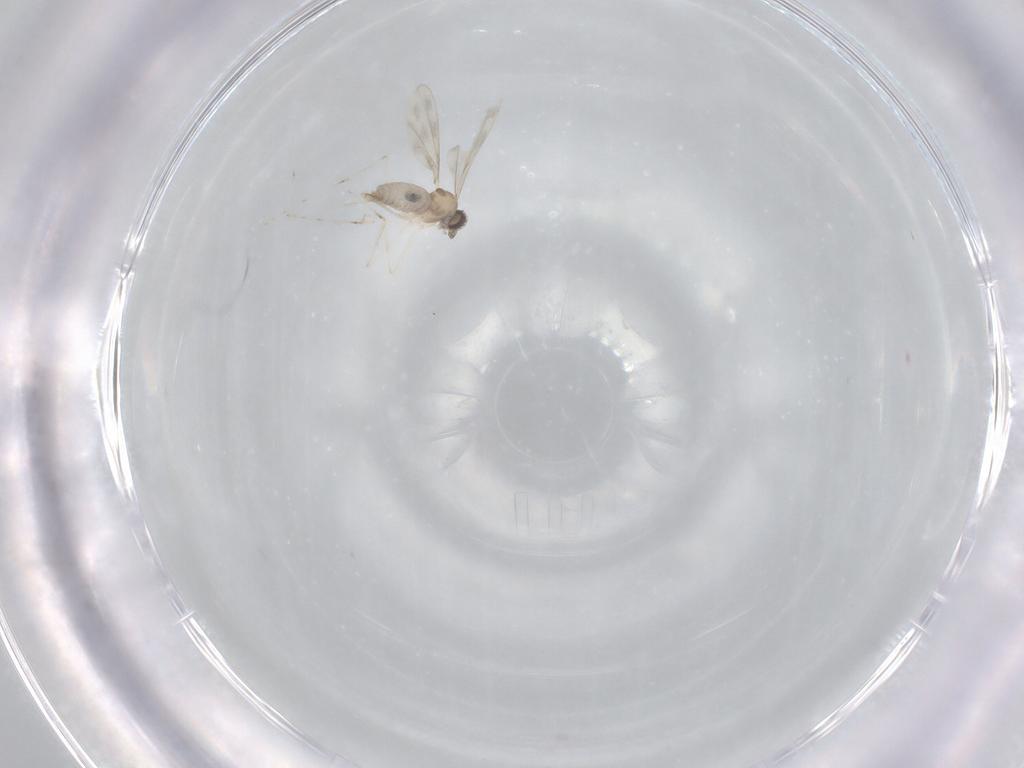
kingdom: Animalia
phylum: Arthropoda
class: Insecta
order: Diptera
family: Cecidomyiidae
